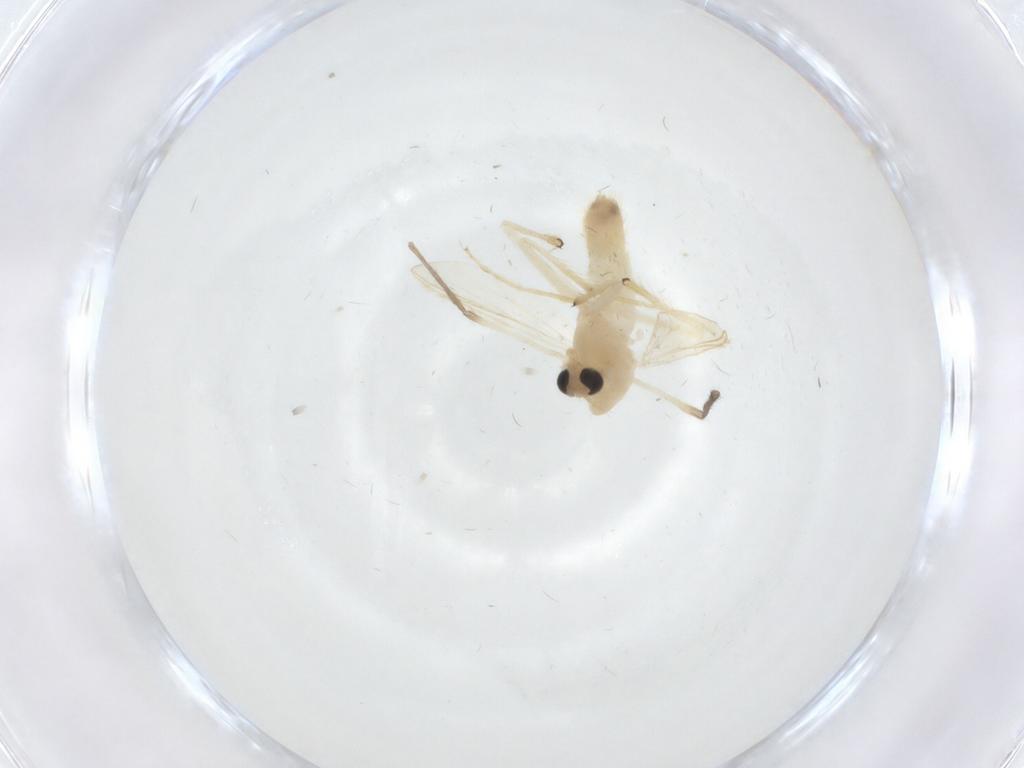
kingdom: Animalia
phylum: Arthropoda
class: Insecta
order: Diptera
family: Chironomidae
